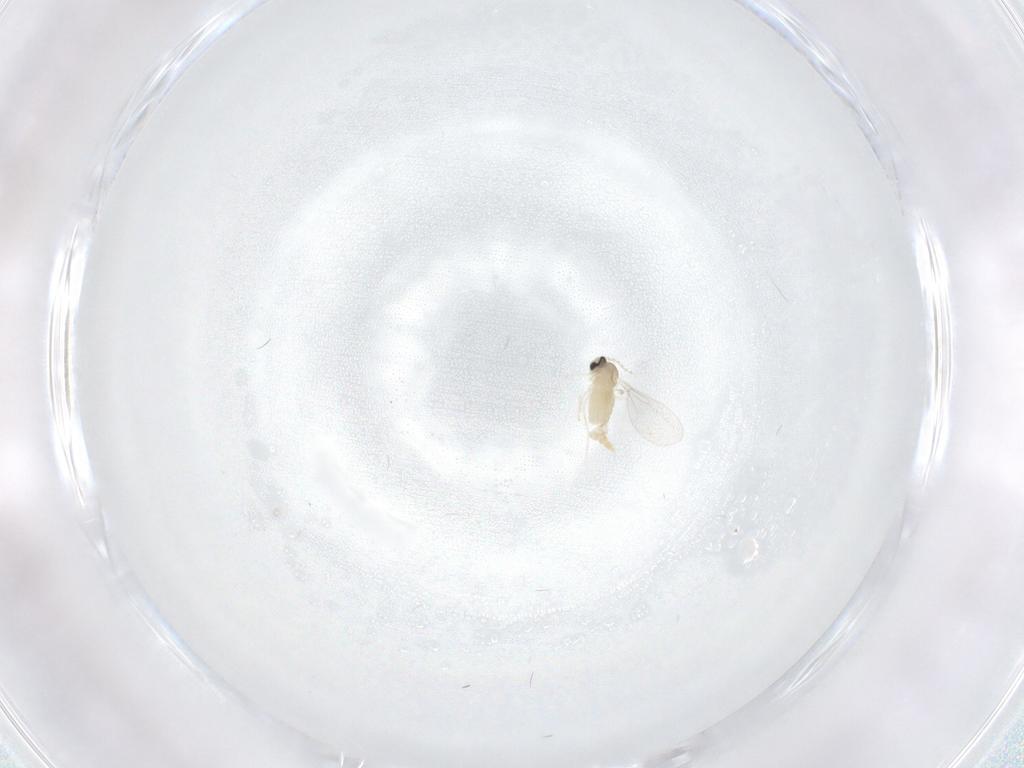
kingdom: Animalia
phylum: Arthropoda
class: Insecta
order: Diptera
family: Cecidomyiidae
